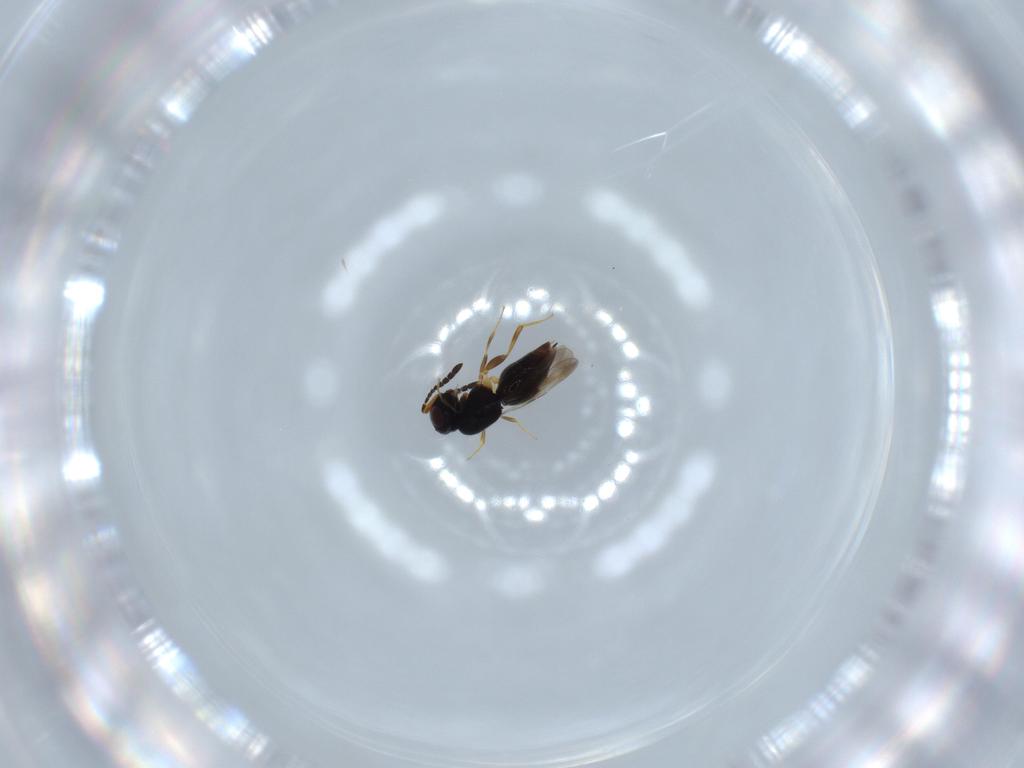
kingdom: Animalia
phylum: Arthropoda
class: Insecta
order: Hymenoptera
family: Ceraphronidae
